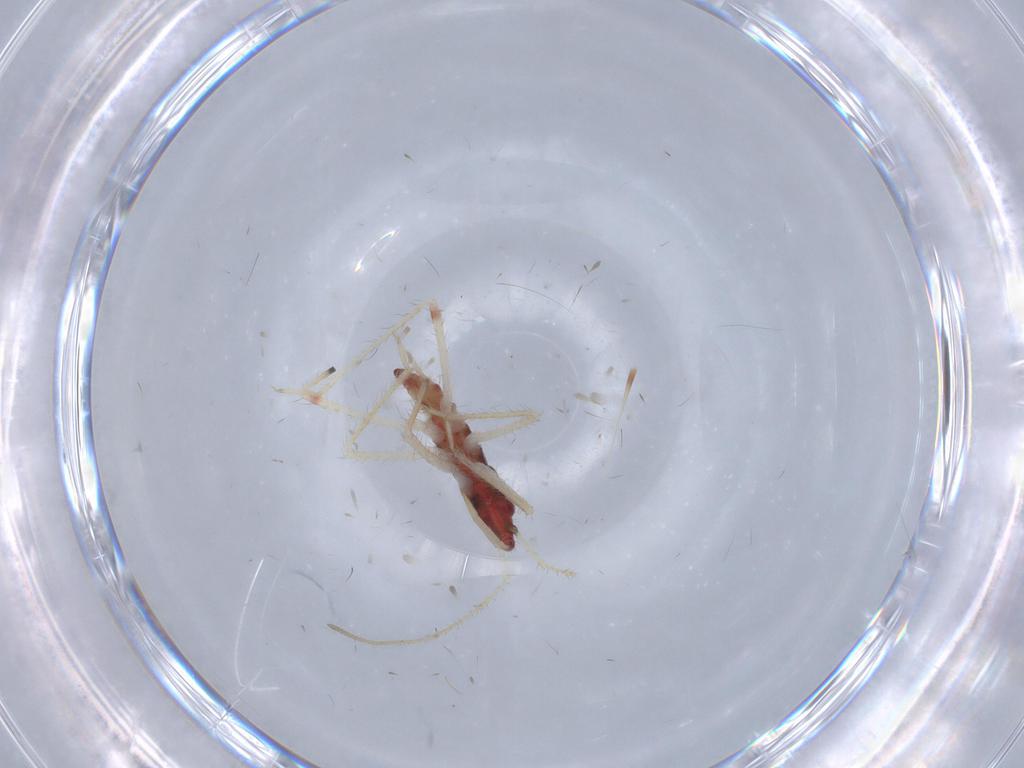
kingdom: Animalia
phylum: Arthropoda
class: Insecta
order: Hemiptera
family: Nabidae
